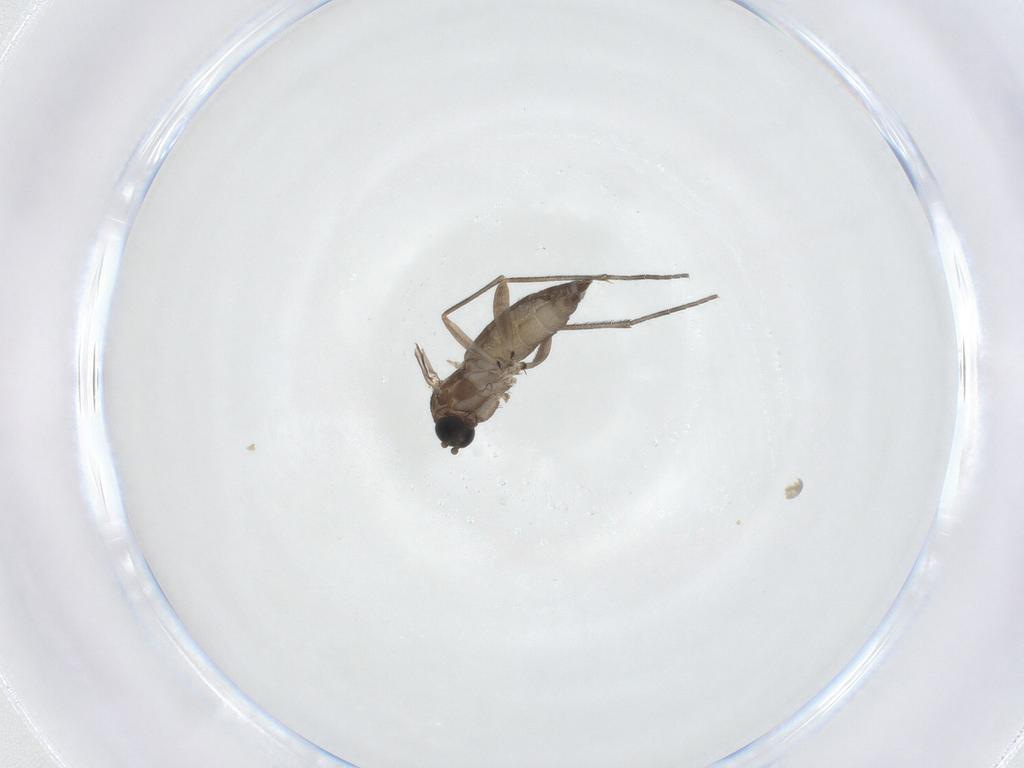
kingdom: Animalia
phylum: Arthropoda
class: Insecta
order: Diptera
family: Sciaridae
